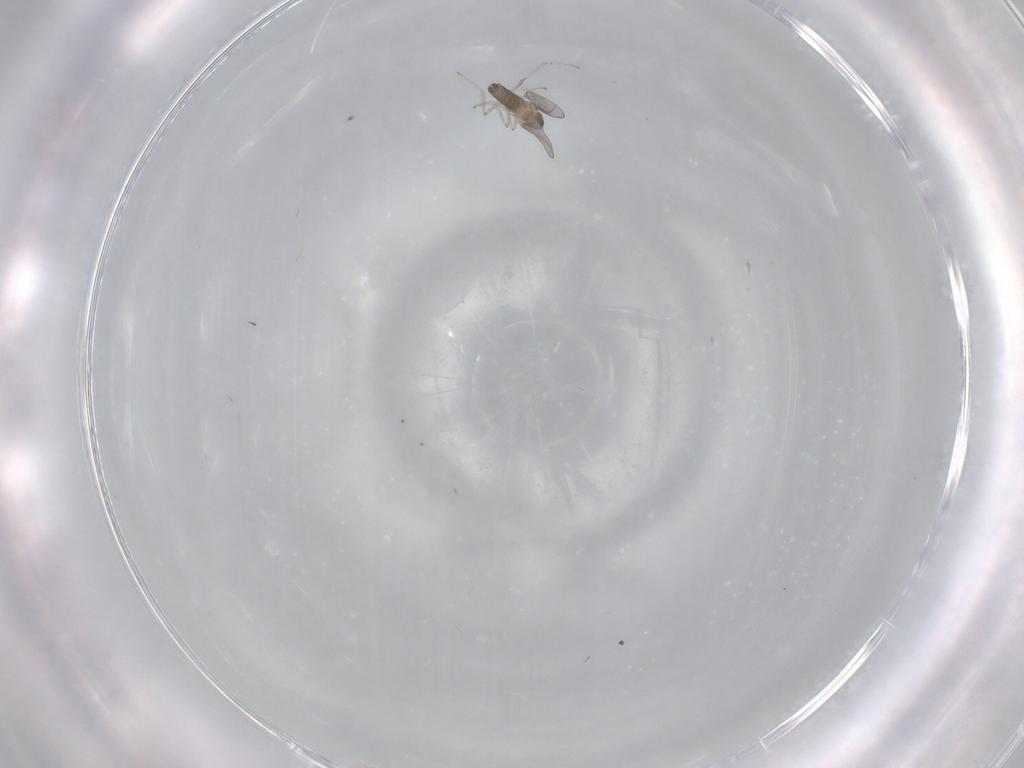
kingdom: Animalia
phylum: Arthropoda
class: Insecta
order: Diptera
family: Cecidomyiidae
